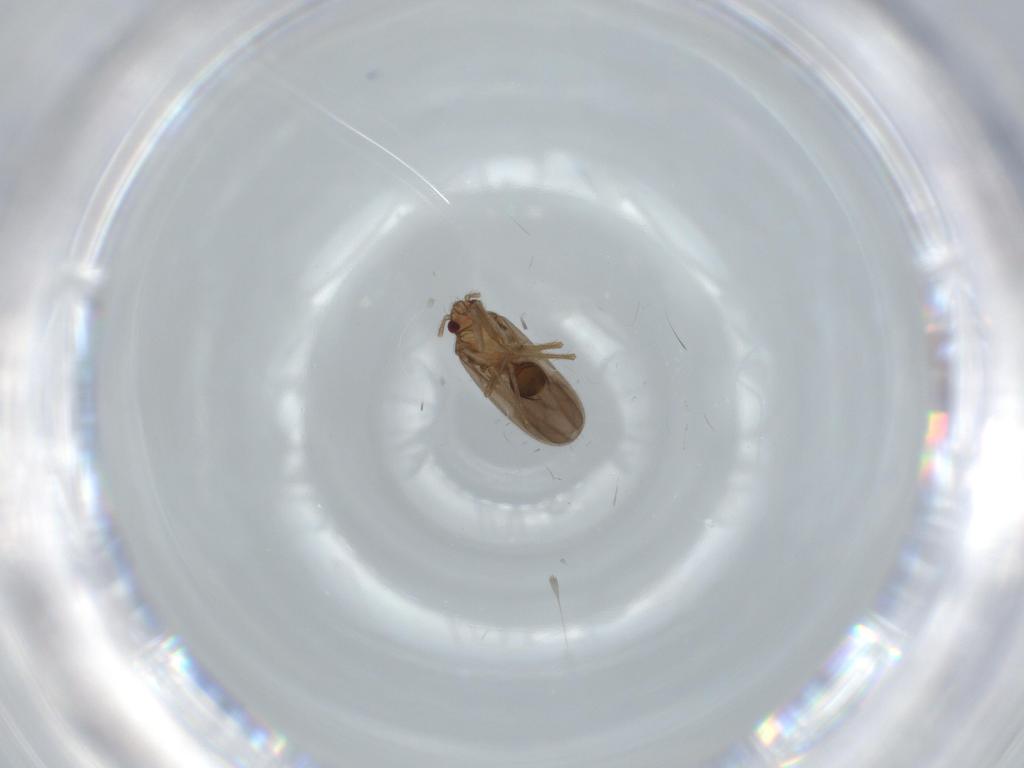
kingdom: Animalia
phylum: Arthropoda
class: Insecta
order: Hemiptera
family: Ceratocombidae
